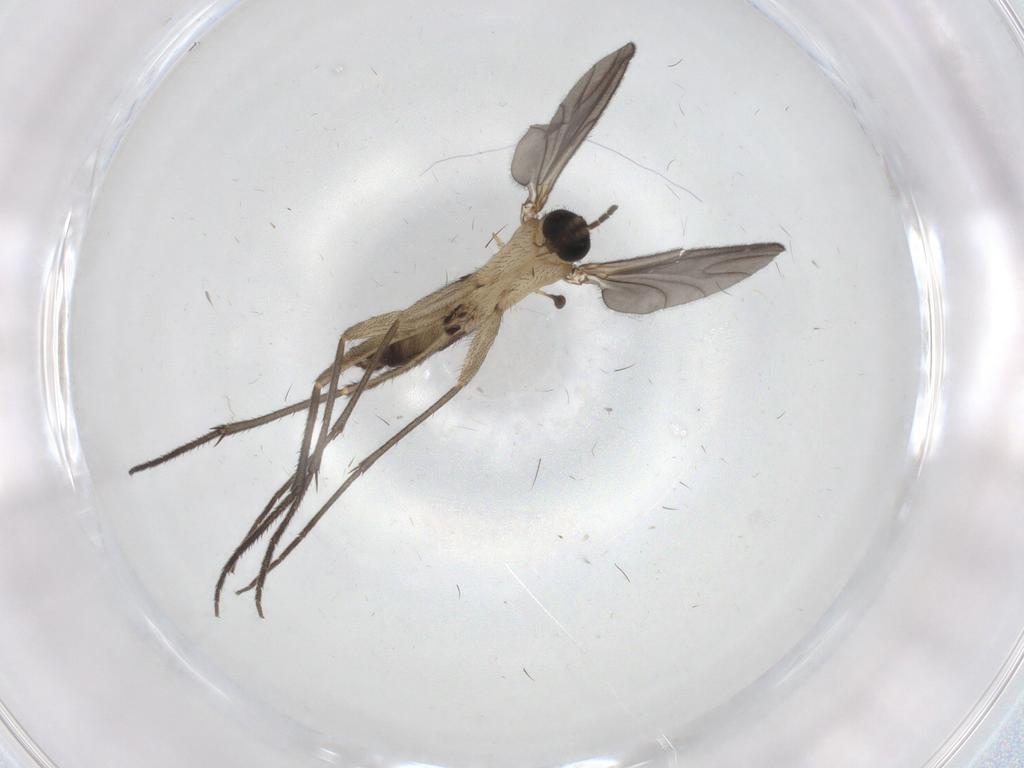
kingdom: Animalia
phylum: Arthropoda
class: Insecta
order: Diptera
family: Sciaridae
